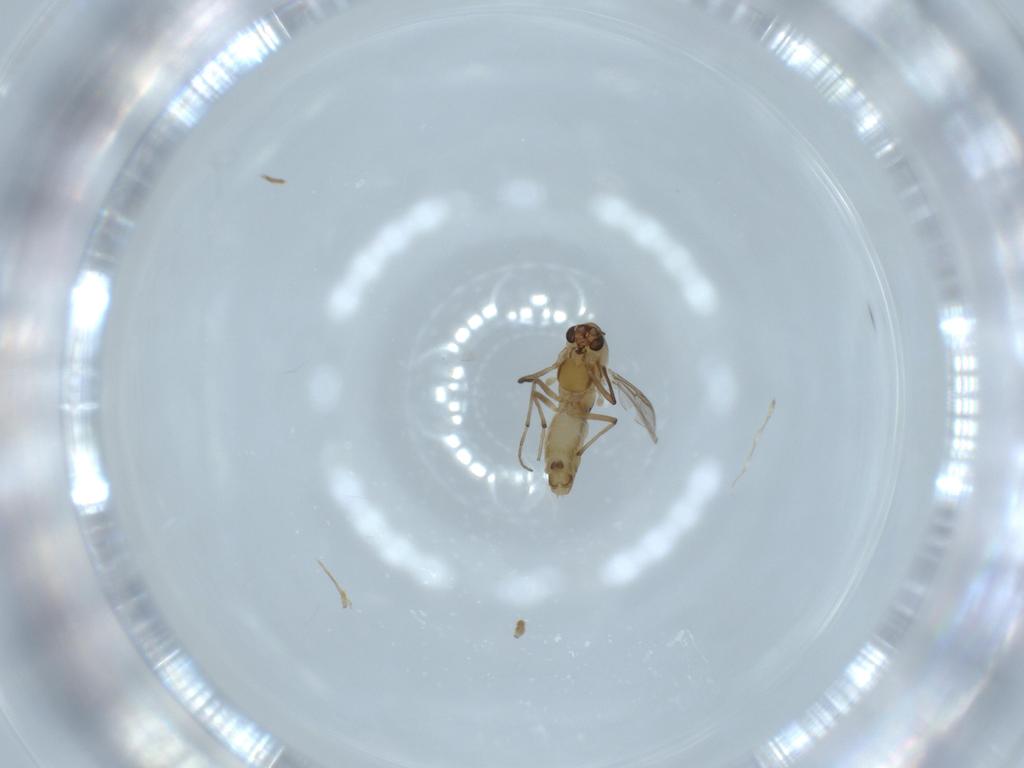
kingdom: Animalia
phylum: Arthropoda
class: Insecta
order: Diptera
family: Chironomidae
